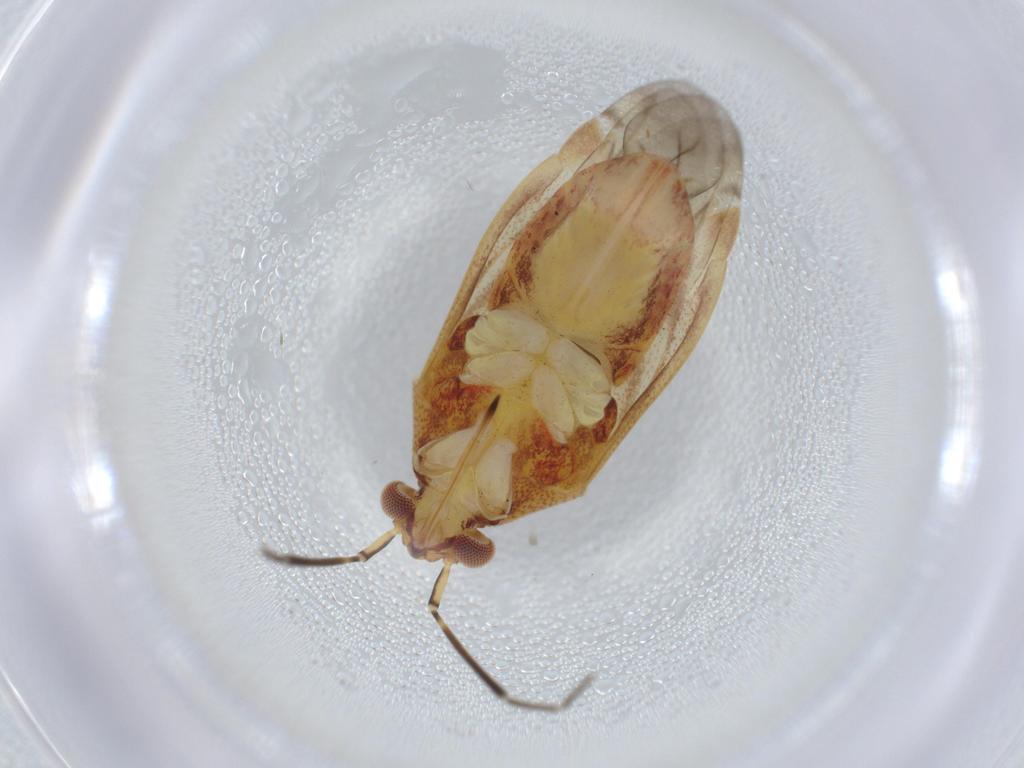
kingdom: Animalia
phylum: Arthropoda
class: Insecta
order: Hemiptera
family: Miridae
